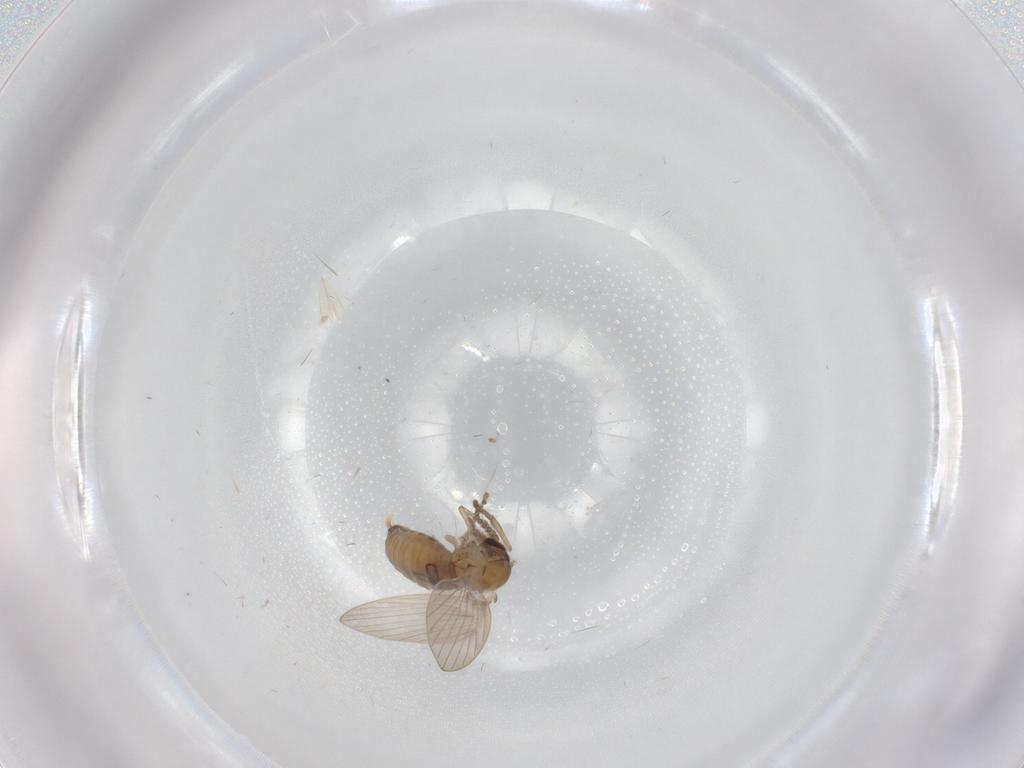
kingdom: Animalia
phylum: Arthropoda
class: Insecta
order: Diptera
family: Psychodidae
